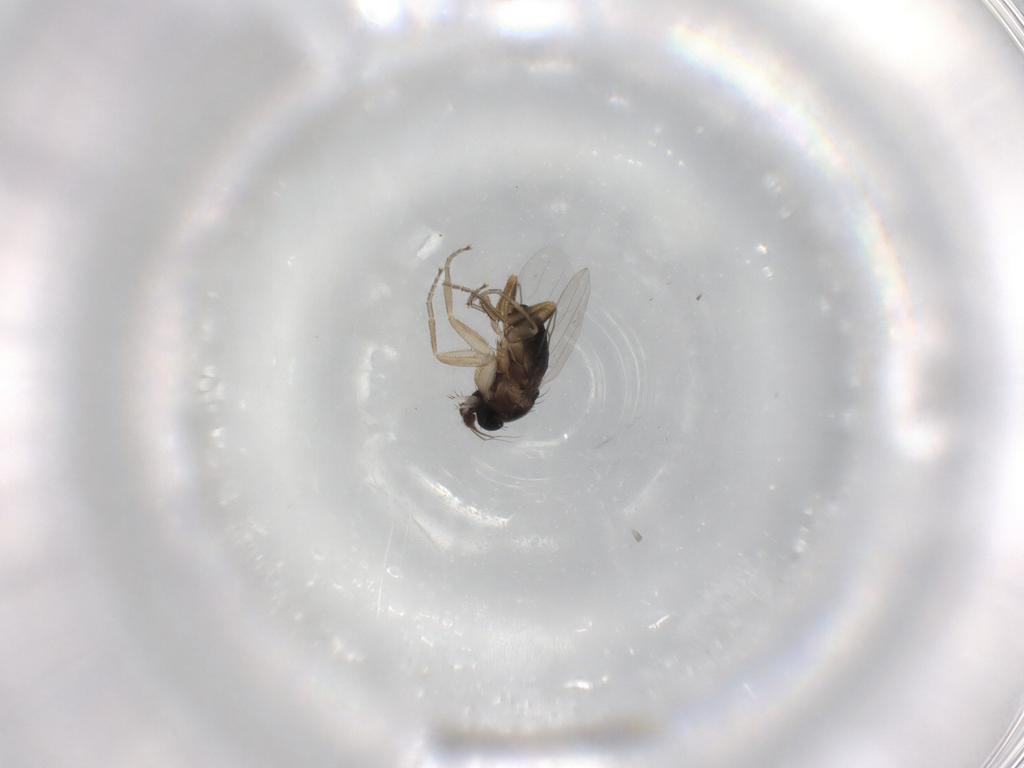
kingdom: Animalia
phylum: Arthropoda
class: Insecta
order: Diptera
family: Phoridae
